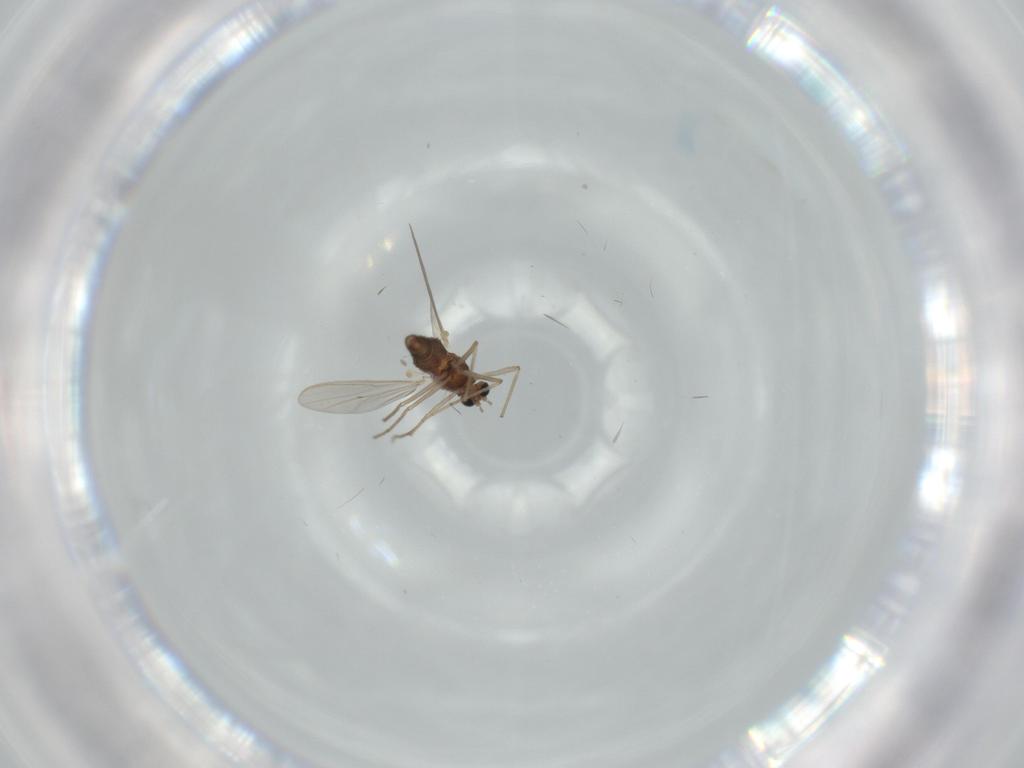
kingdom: Animalia
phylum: Arthropoda
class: Insecta
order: Diptera
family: Chironomidae
